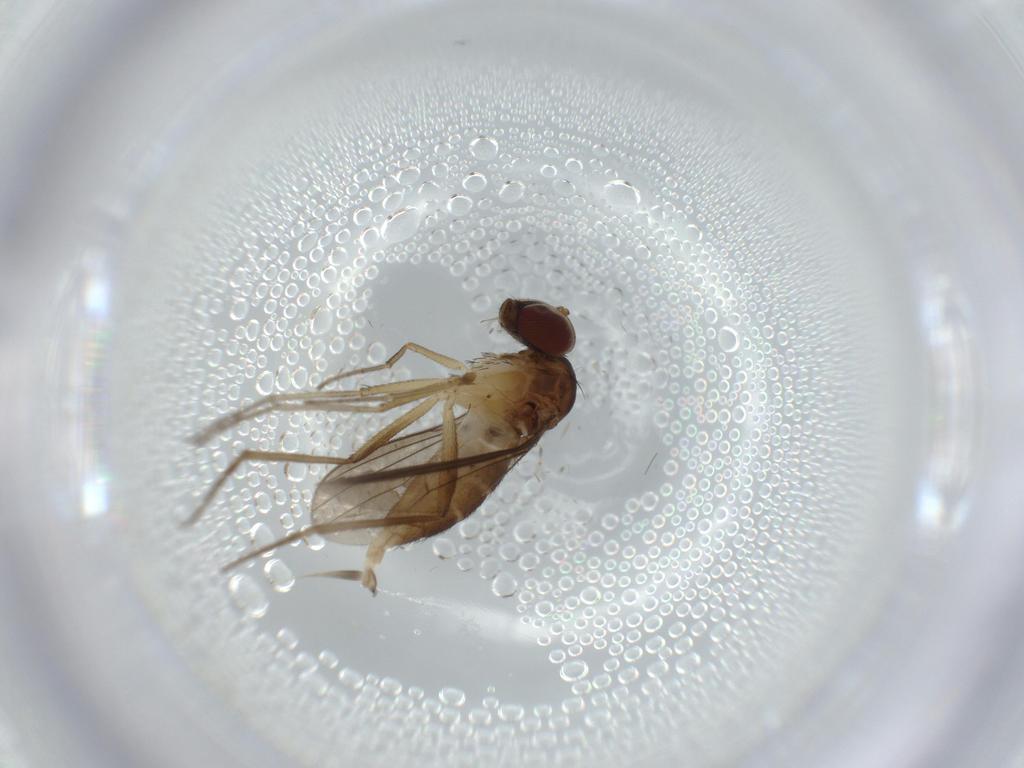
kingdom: Animalia
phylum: Arthropoda
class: Insecta
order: Diptera
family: Dolichopodidae
